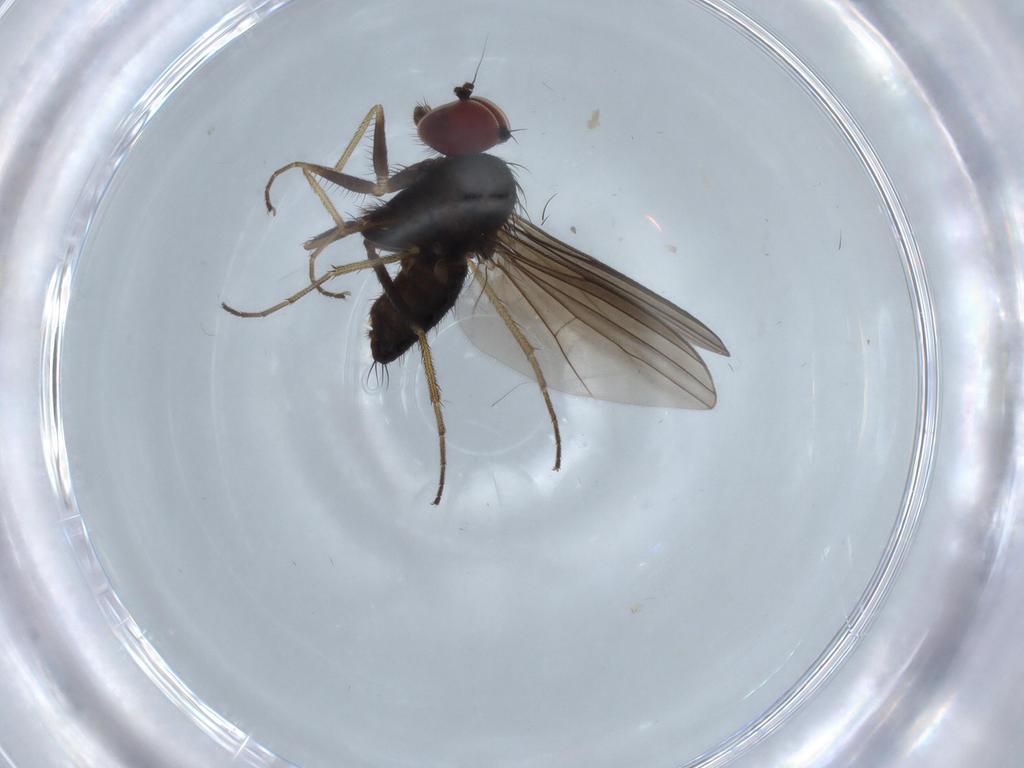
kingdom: Animalia
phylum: Arthropoda
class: Insecta
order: Diptera
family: Dolichopodidae
